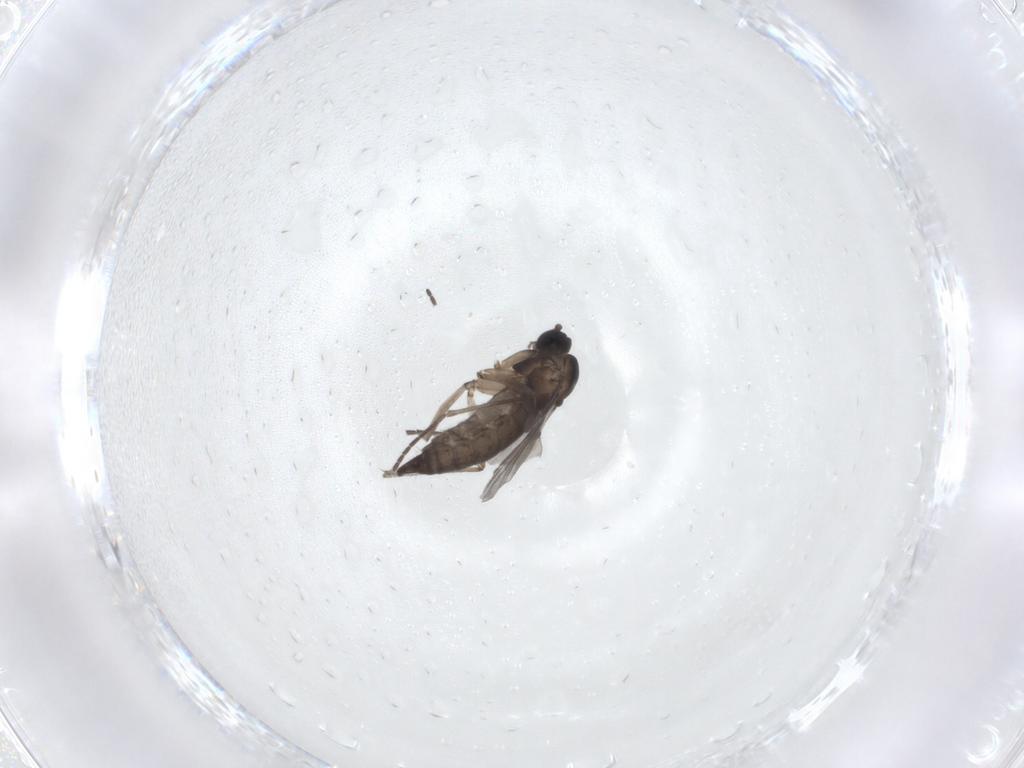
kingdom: Animalia
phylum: Arthropoda
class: Insecta
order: Diptera
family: Sciaridae
